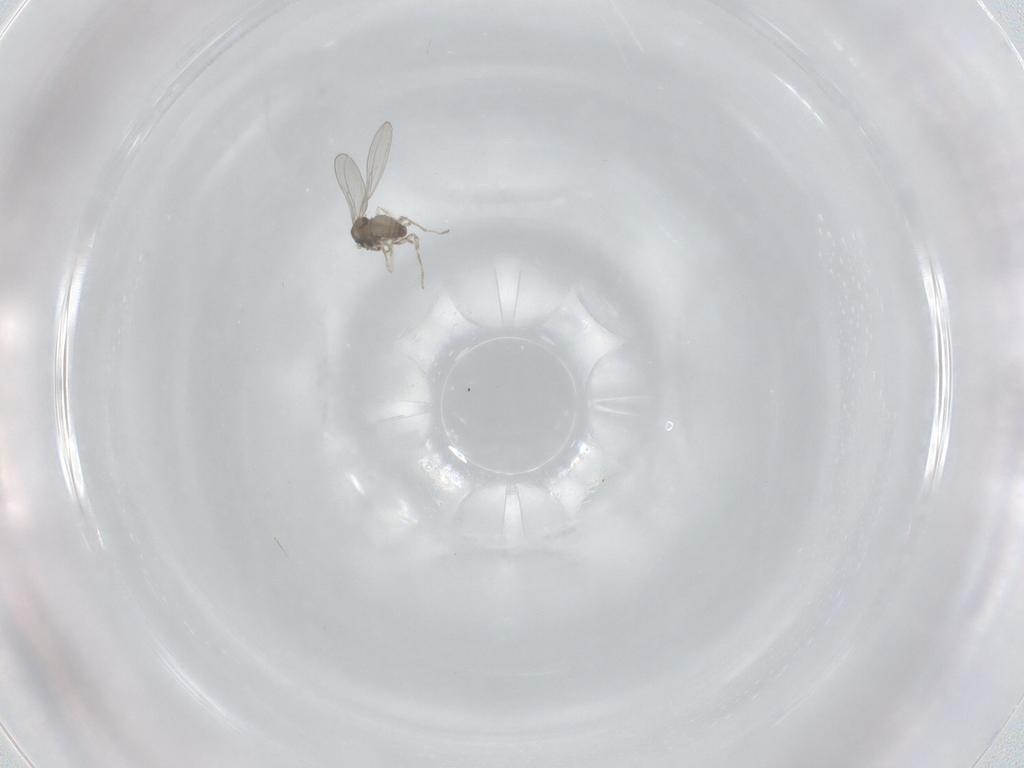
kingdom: Animalia
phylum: Arthropoda
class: Insecta
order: Diptera
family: Cecidomyiidae
